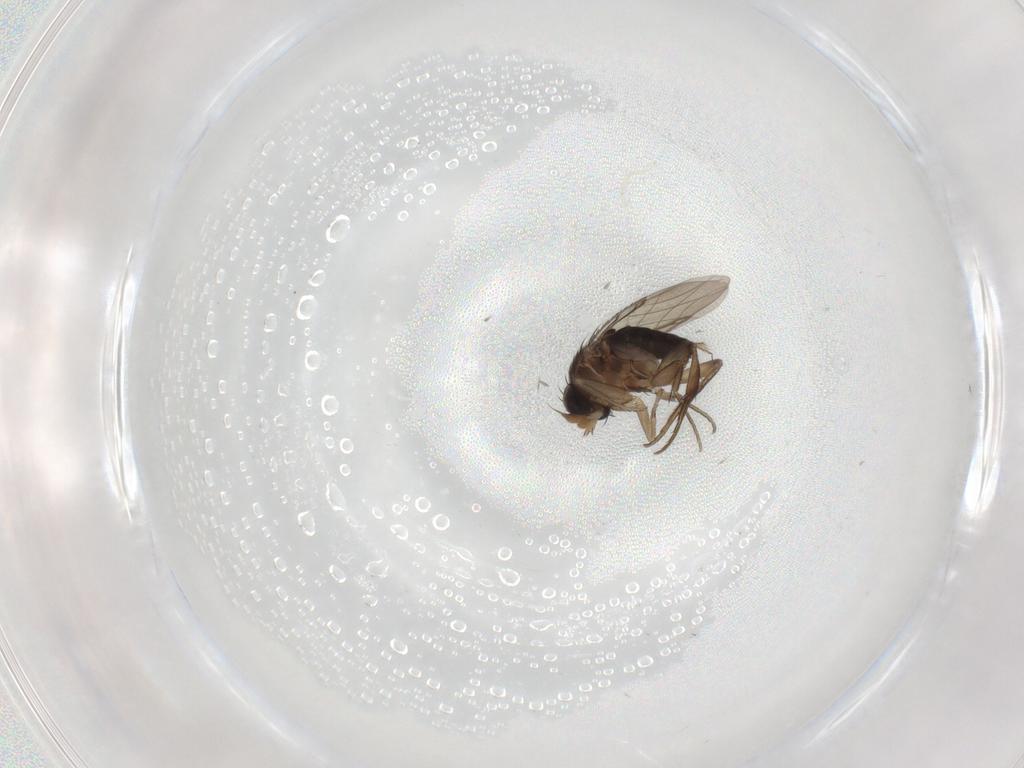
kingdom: Animalia
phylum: Arthropoda
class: Insecta
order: Diptera
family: Phoridae
